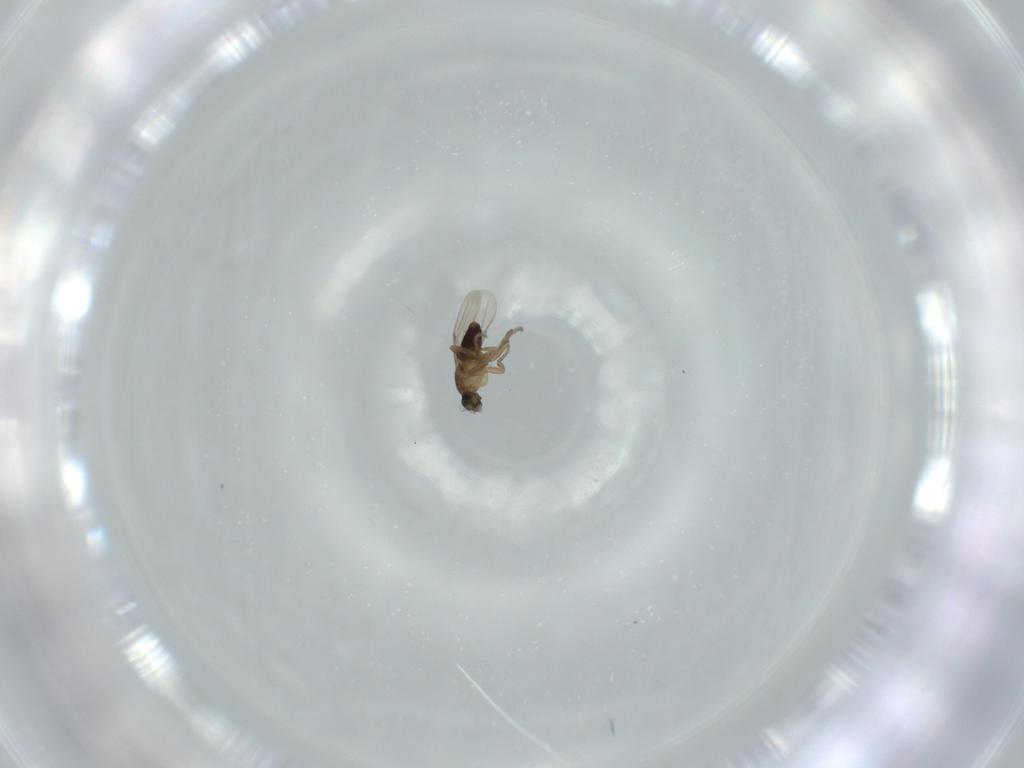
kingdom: Animalia
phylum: Arthropoda
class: Insecta
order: Diptera
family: Phoridae
